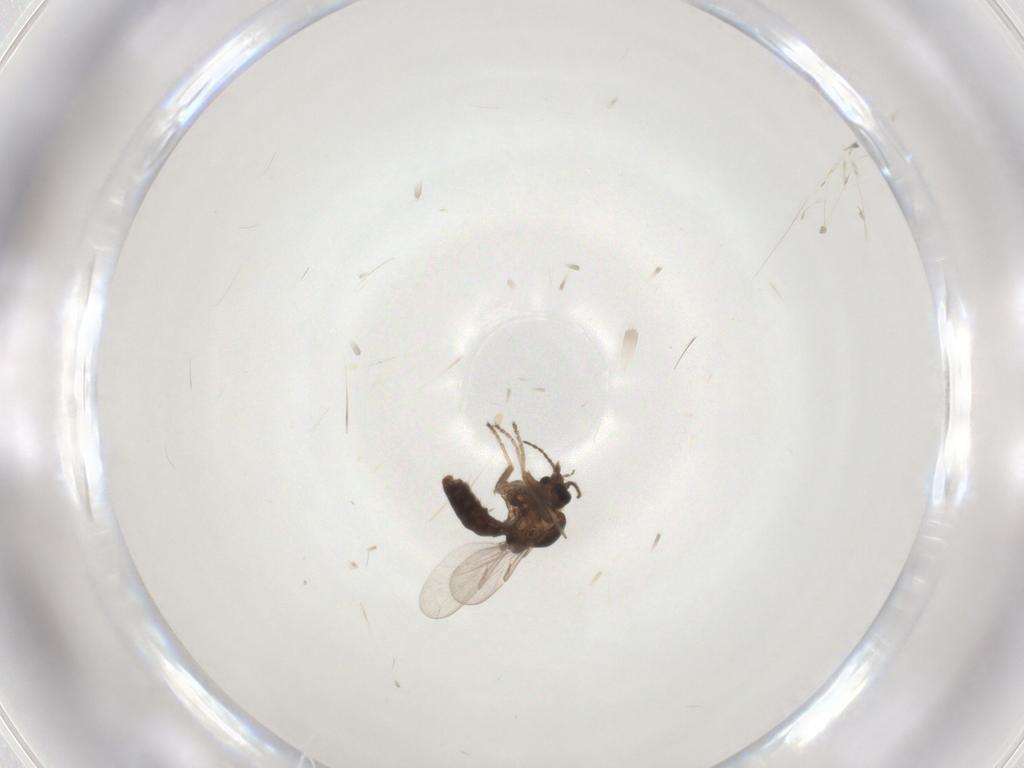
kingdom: Animalia
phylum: Arthropoda
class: Insecta
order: Diptera
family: Ceratopogonidae
